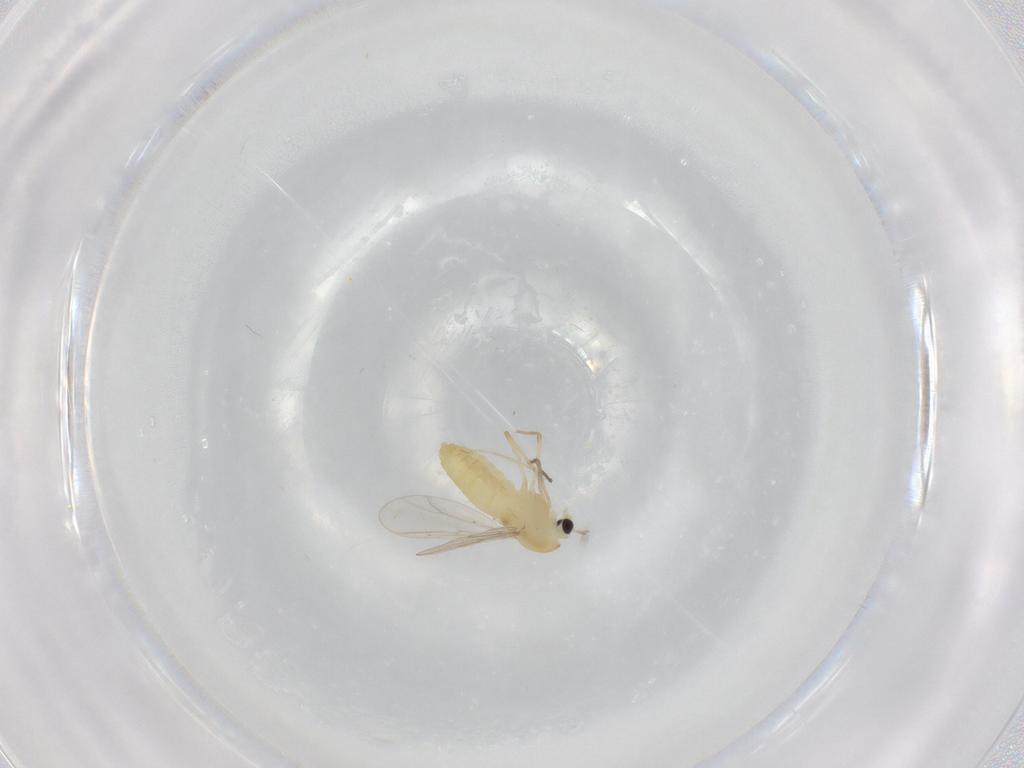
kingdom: Animalia
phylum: Arthropoda
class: Insecta
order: Diptera
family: Chironomidae
